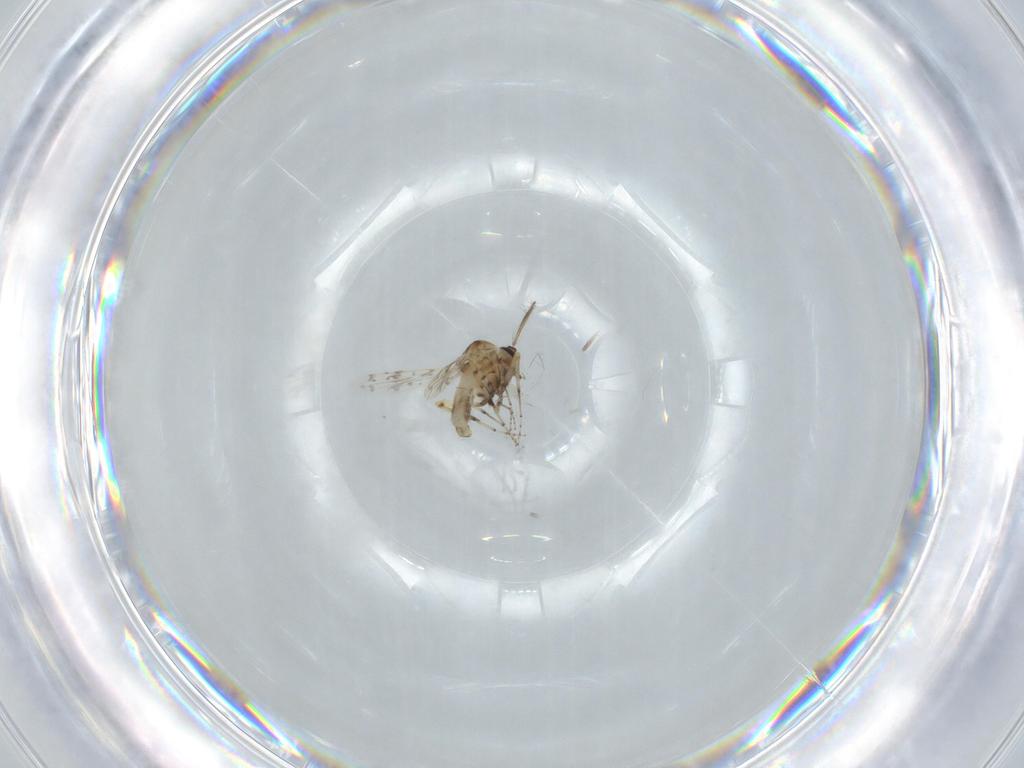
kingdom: Animalia
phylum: Arthropoda
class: Insecta
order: Diptera
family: Ceratopogonidae
